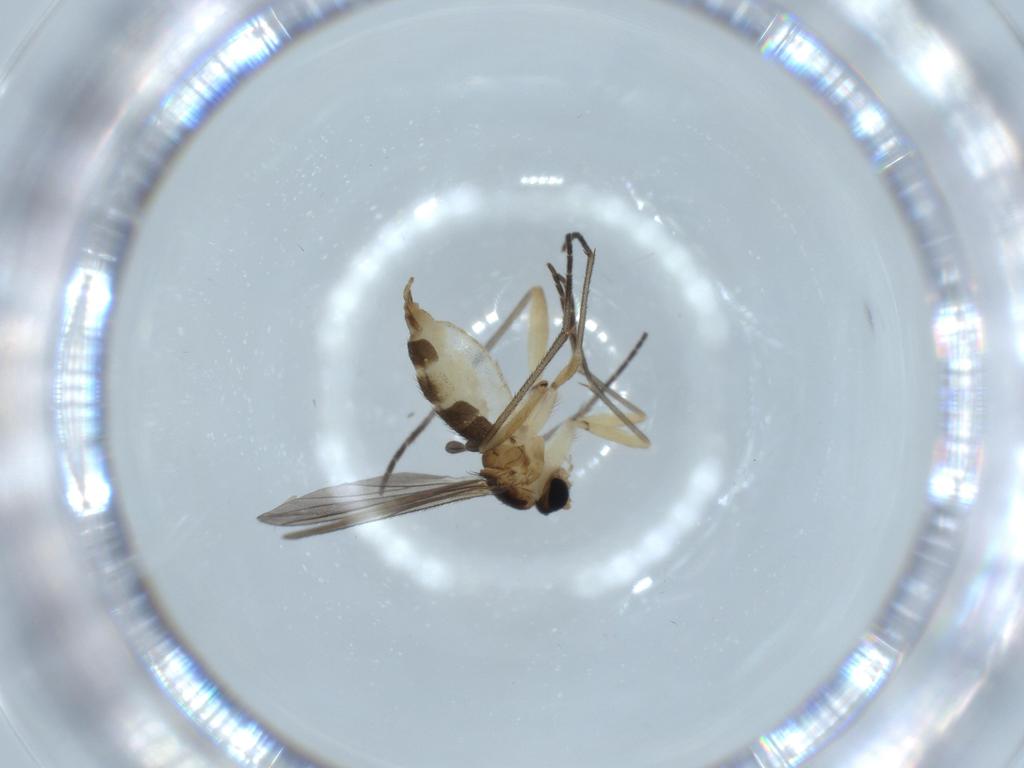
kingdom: Animalia
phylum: Arthropoda
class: Insecta
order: Diptera
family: Sciaridae
